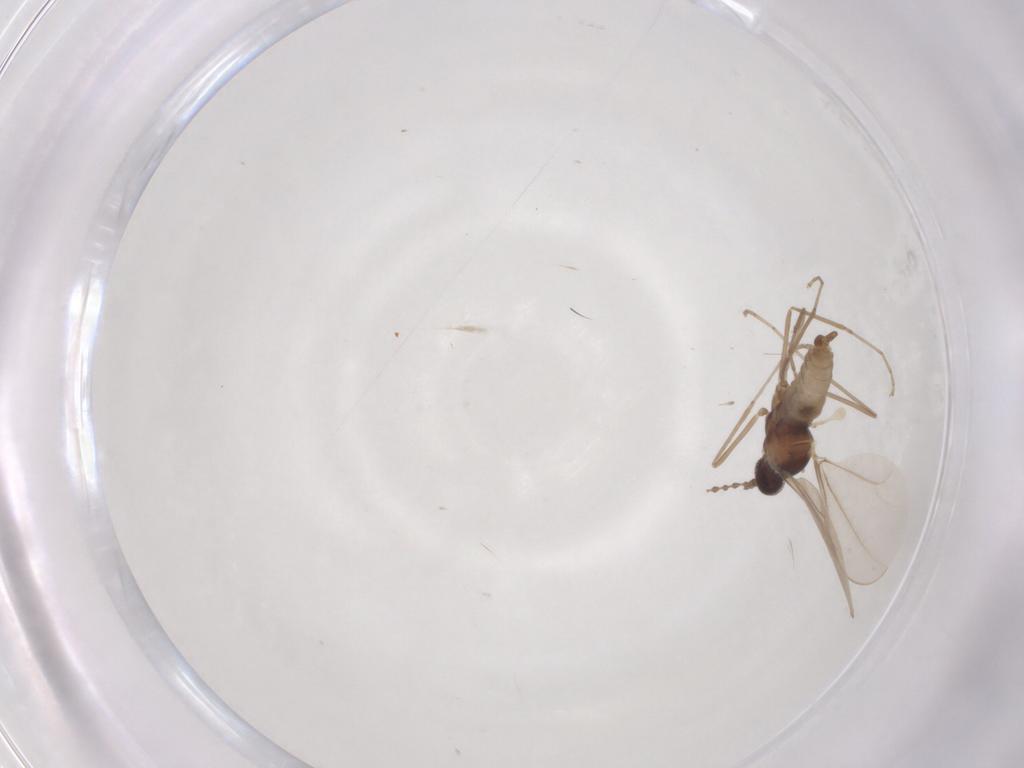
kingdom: Animalia
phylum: Arthropoda
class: Insecta
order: Diptera
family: Cecidomyiidae
